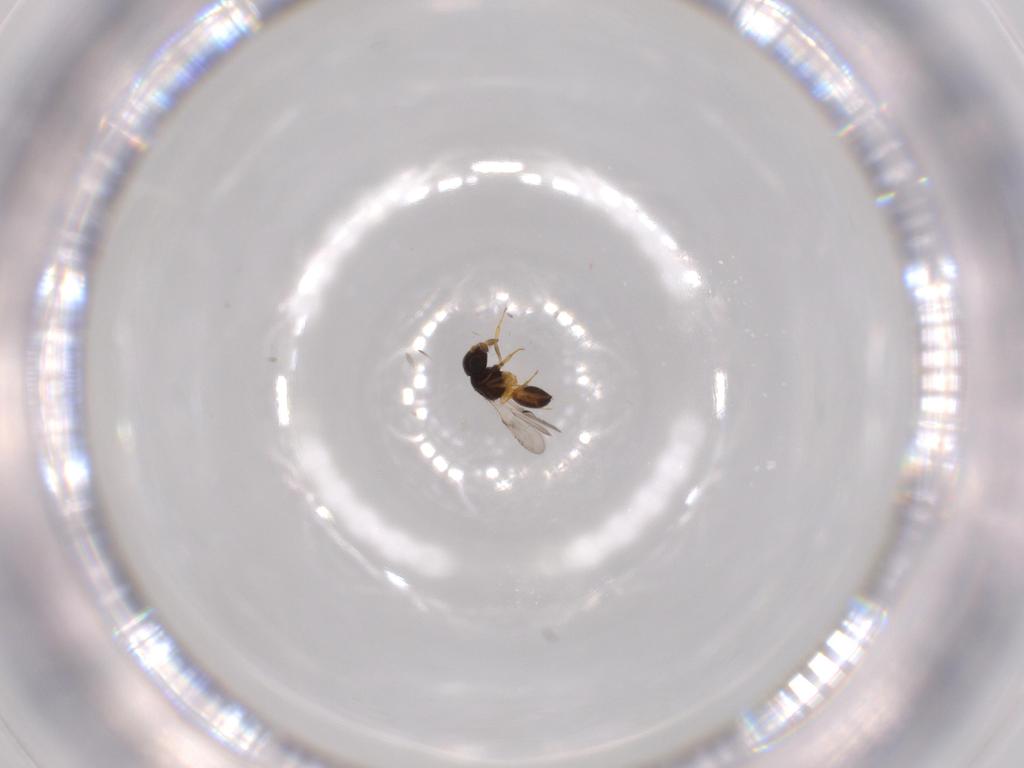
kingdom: Animalia
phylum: Arthropoda
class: Insecta
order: Hymenoptera
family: Scelionidae
